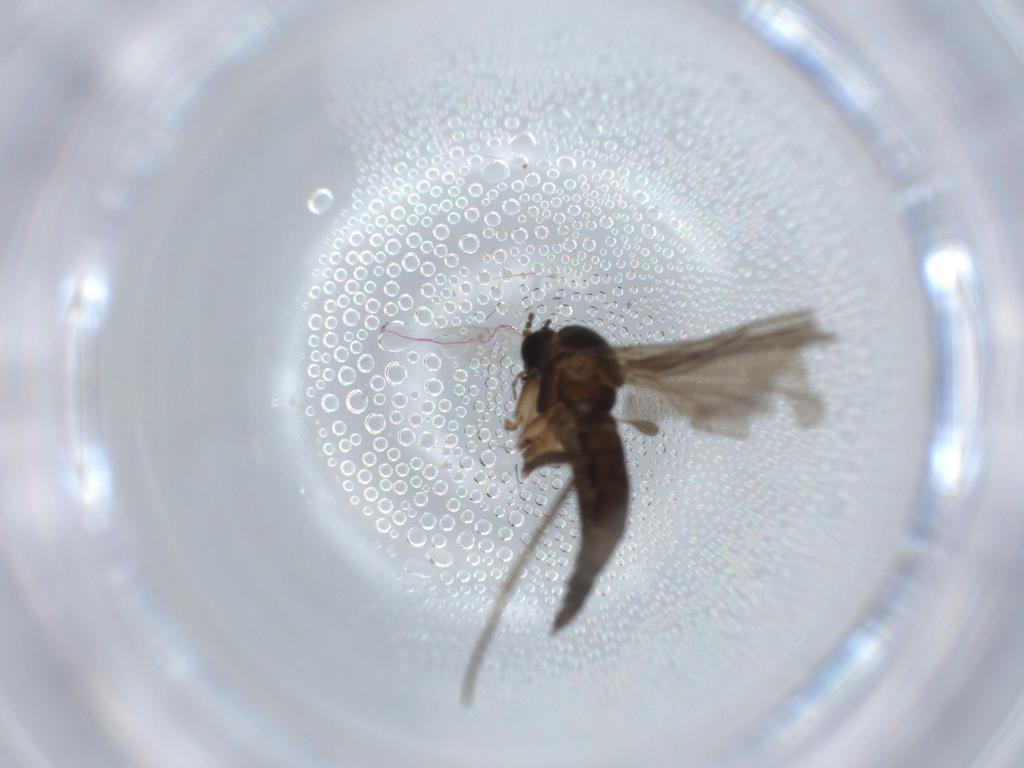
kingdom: Animalia
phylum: Arthropoda
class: Insecta
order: Diptera
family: Sciaridae
